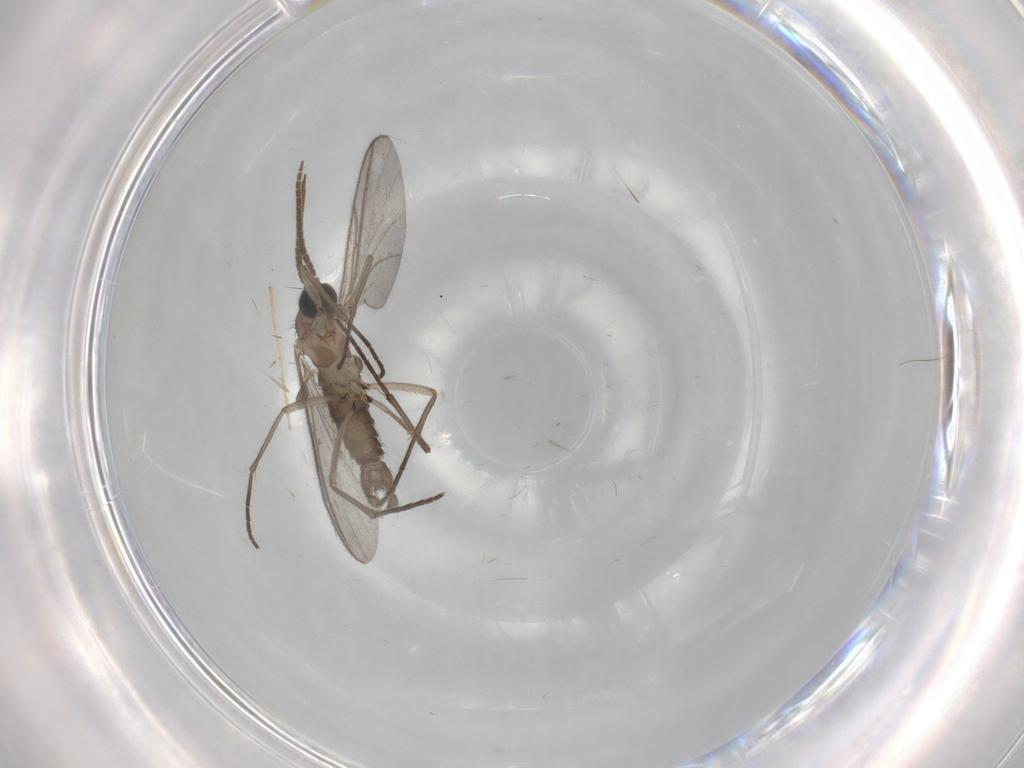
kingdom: Animalia
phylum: Arthropoda
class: Insecta
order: Diptera
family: Limoniidae
